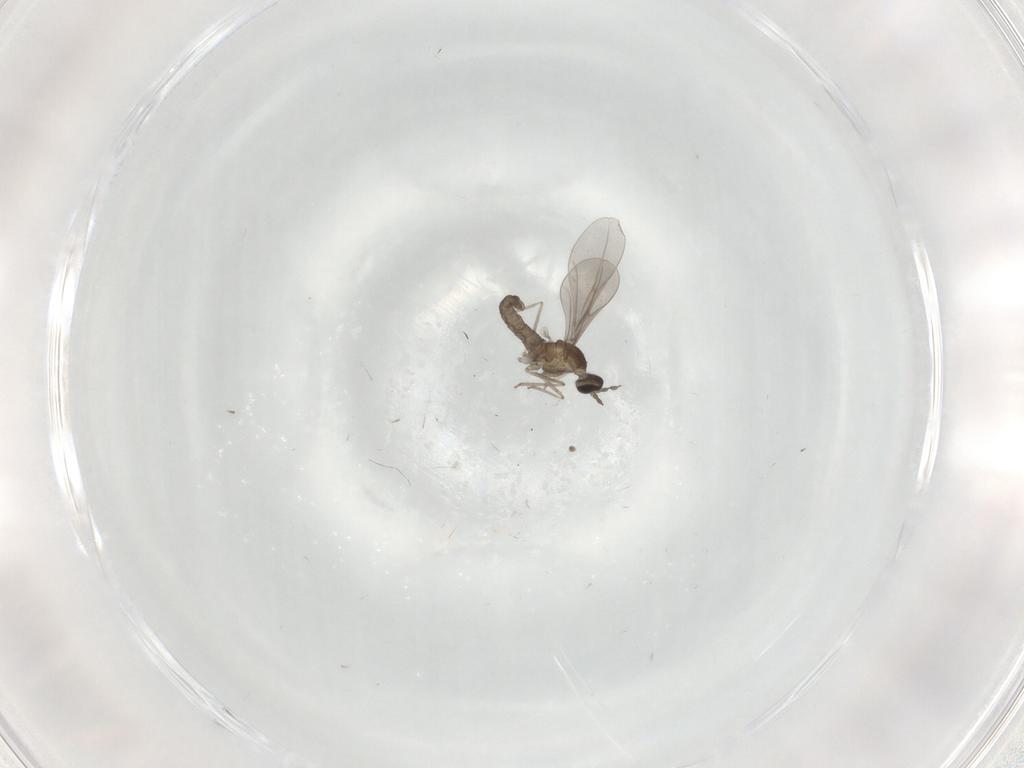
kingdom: Animalia
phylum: Arthropoda
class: Insecta
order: Diptera
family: Cecidomyiidae
